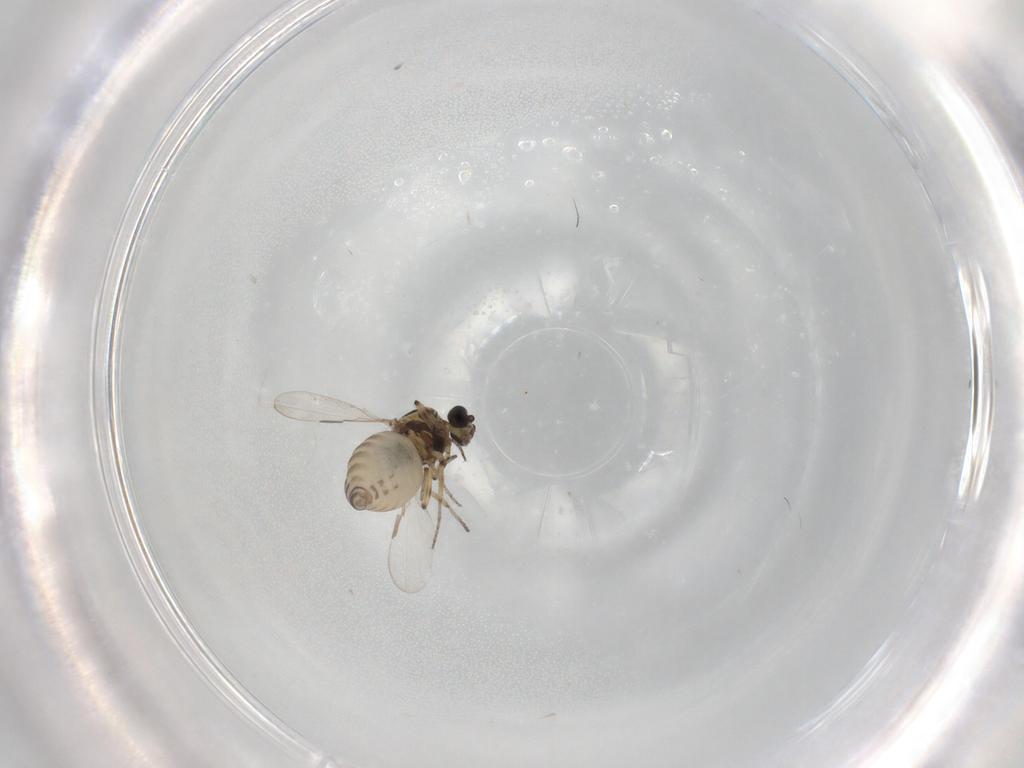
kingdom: Animalia
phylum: Arthropoda
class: Insecta
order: Diptera
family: Ceratopogonidae
